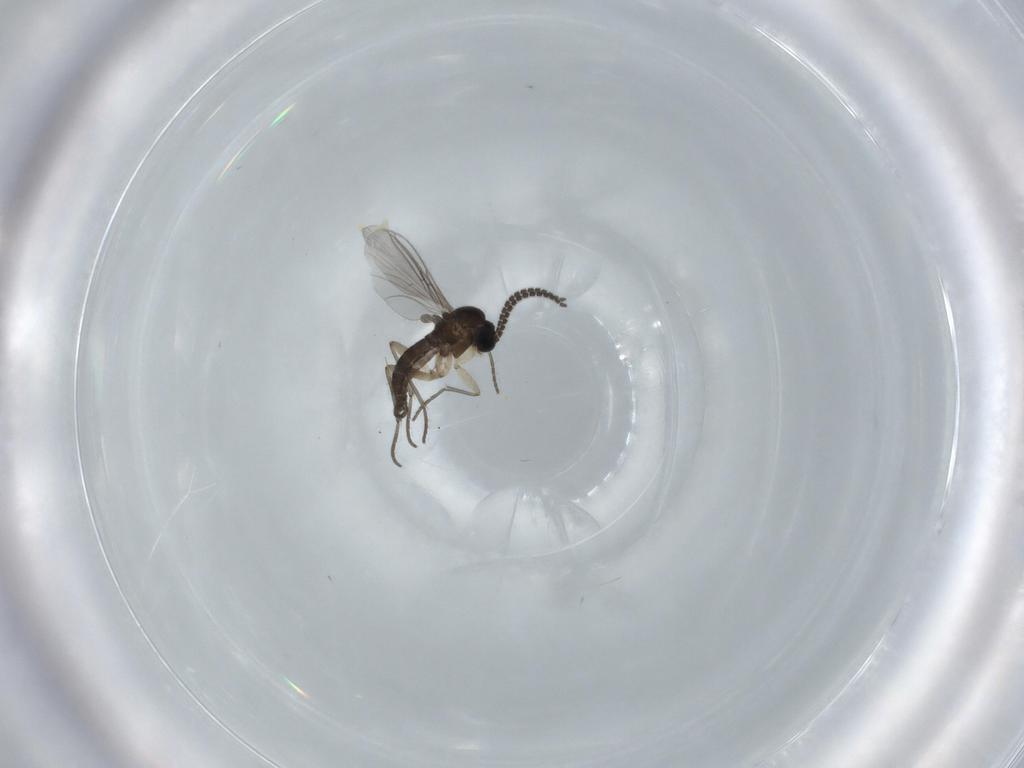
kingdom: Animalia
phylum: Arthropoda
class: Insecta
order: Diptera
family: Sciaridae
